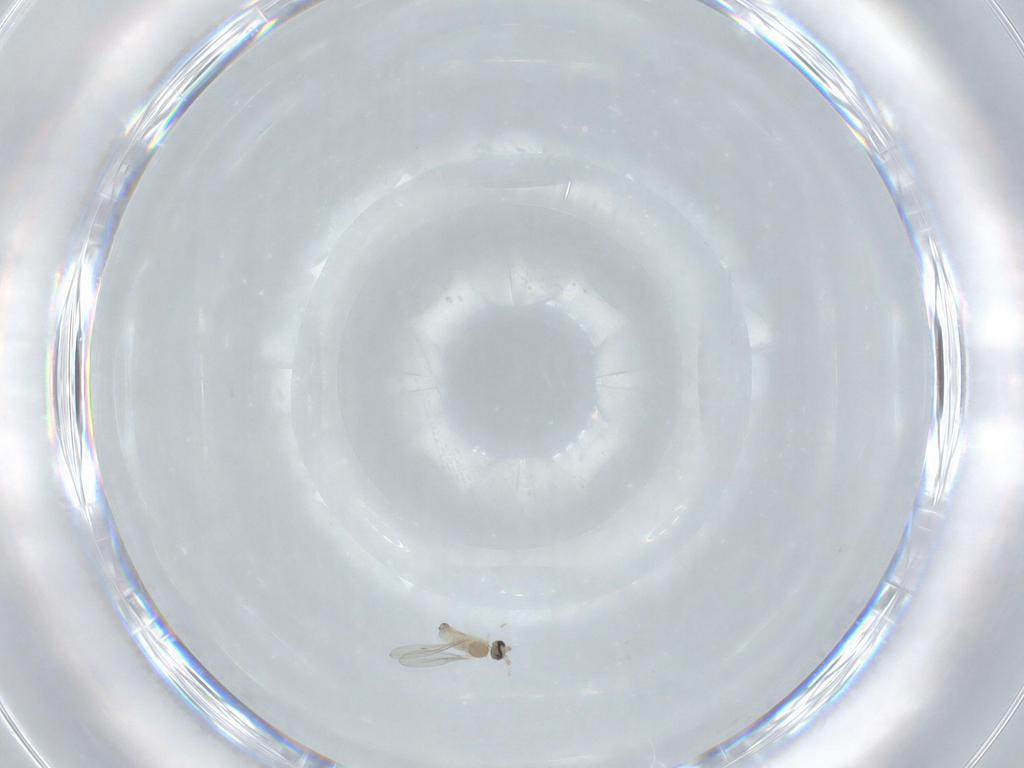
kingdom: Animalia
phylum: Arthropoda
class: Insecta
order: Diptera
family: Cecidomyiidae
